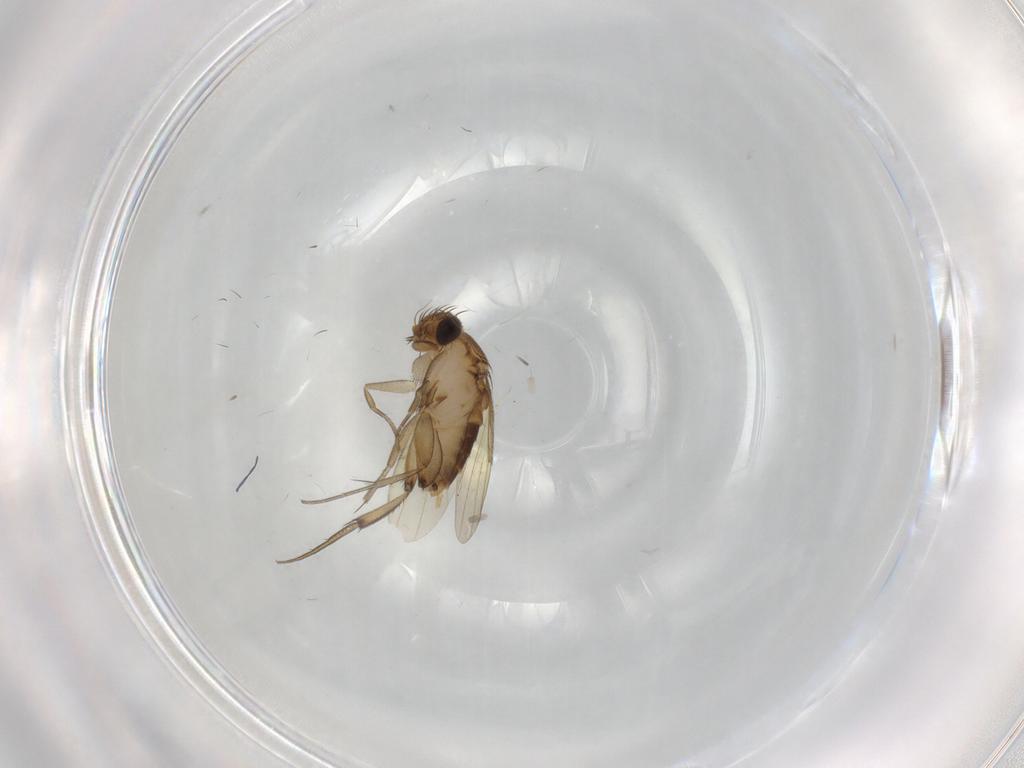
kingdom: Animalia
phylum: Arthropoda
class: Insecta
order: Diptera
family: Phoridae
